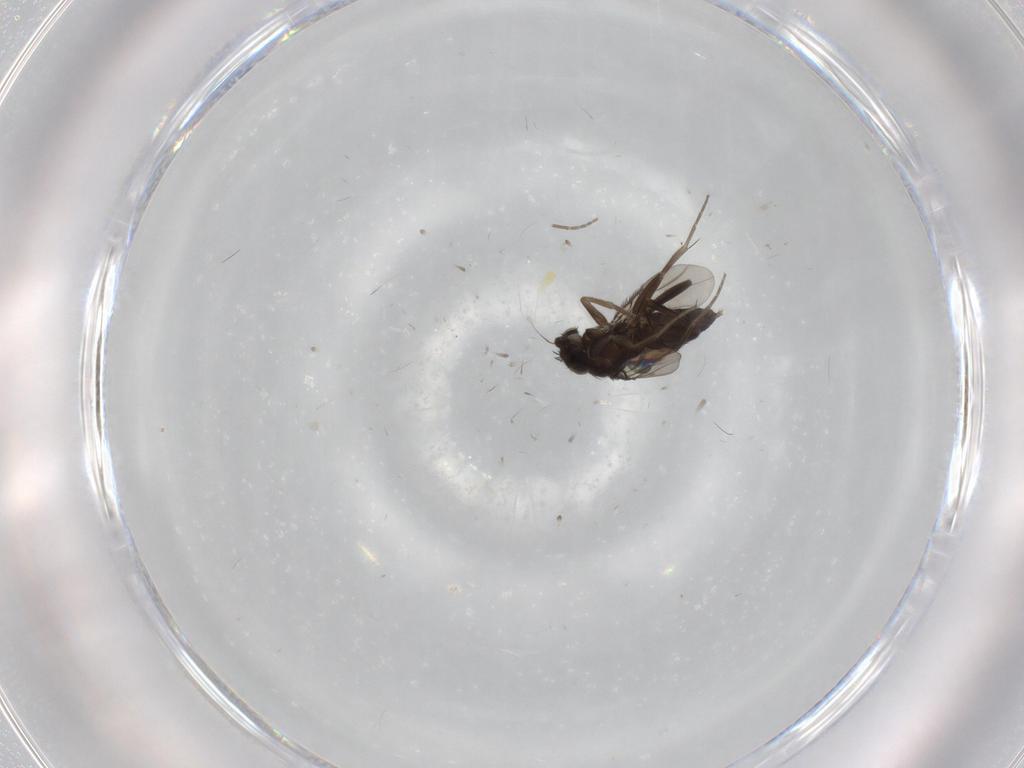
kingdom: Animalia
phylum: Arthropoda
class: Insecta
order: Diptera
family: Phoridae
